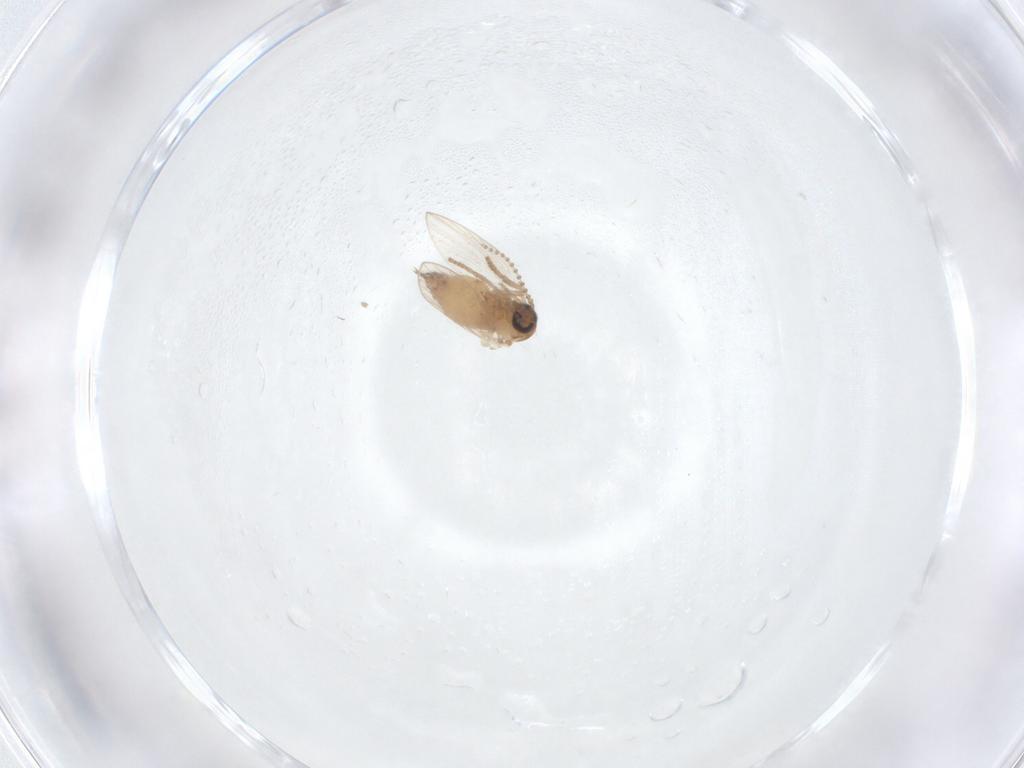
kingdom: Animalia
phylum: Arthropoda
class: Insecta
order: Diptera
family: Psychodidae
